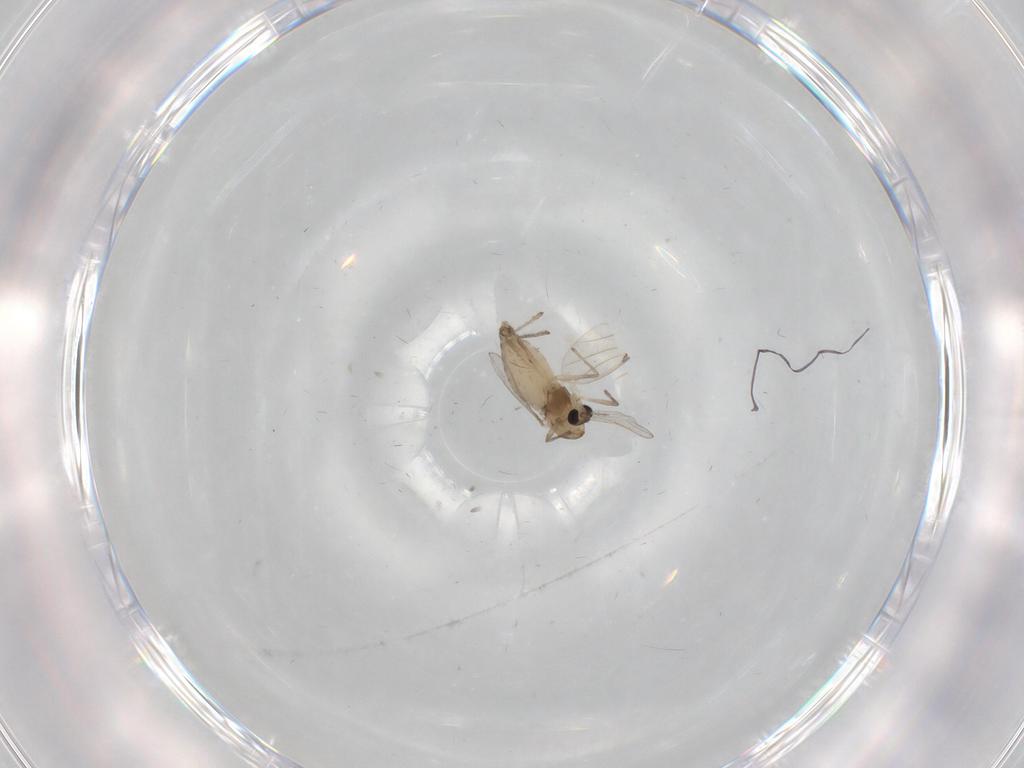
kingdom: Animalia
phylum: Arthropoda
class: Insecta
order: Diptera
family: Chironomidae
